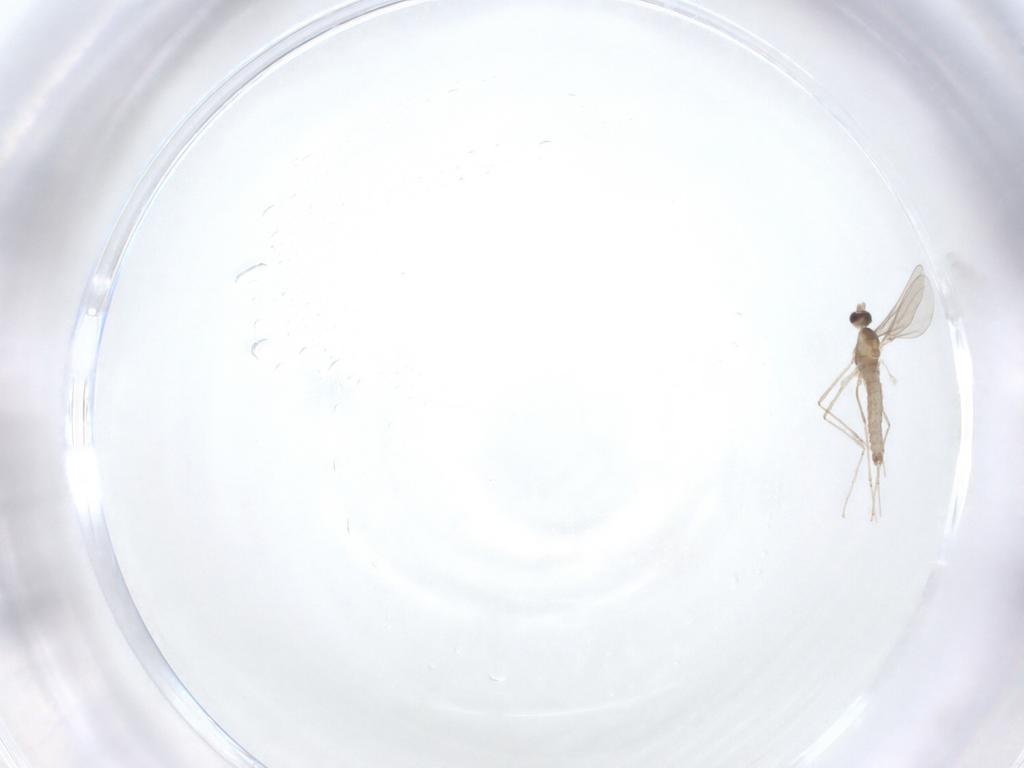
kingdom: Animalia
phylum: Arthropoda
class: Insecta
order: Diptera
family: Cecidomyiidae
